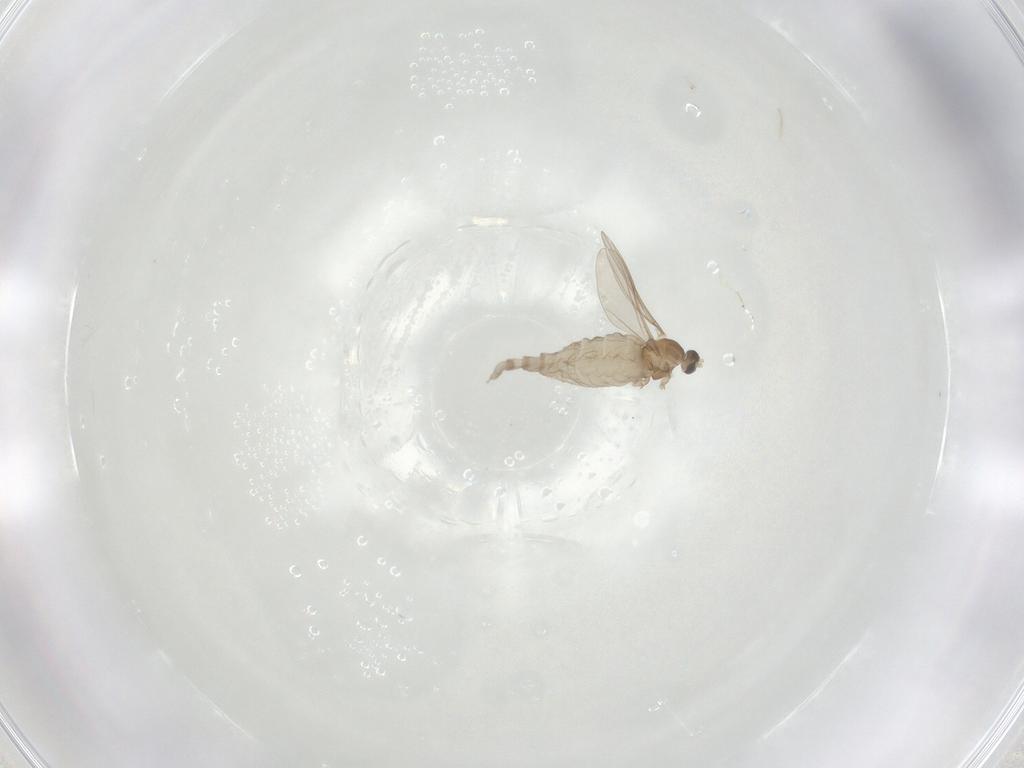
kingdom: Animalia
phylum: Arthropoda
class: Insecta
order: Diptera
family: Cecidomyiidae
